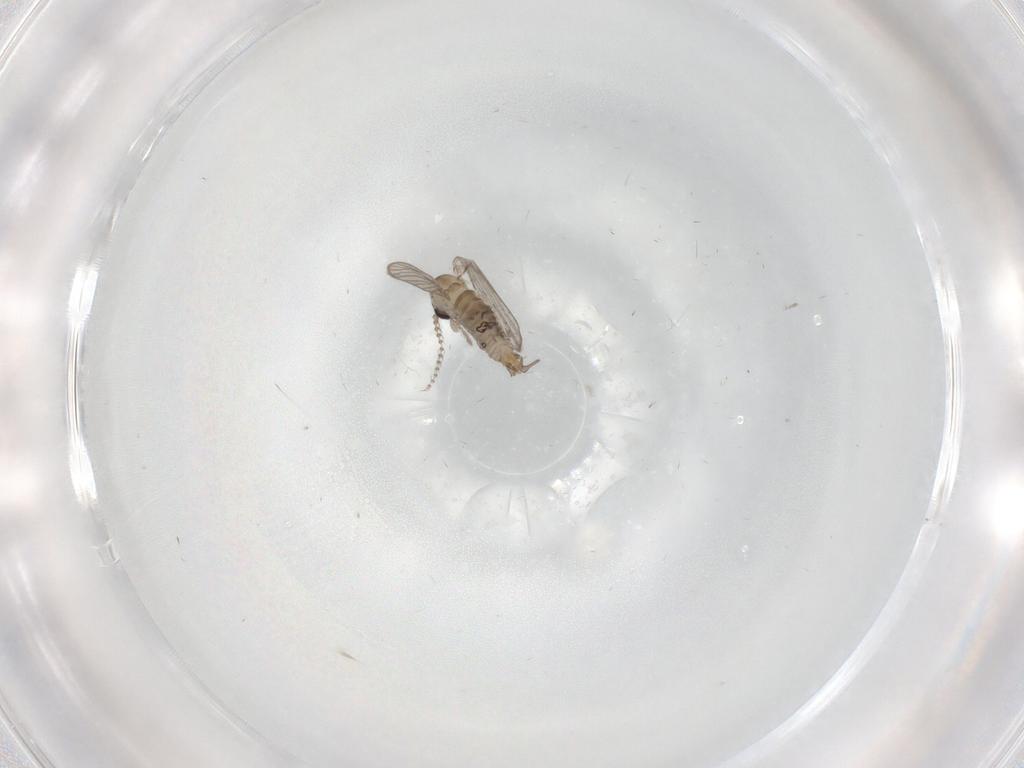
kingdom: Animalia
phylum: Arthropoda
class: Insecta
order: Diptera
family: Psychodidae
